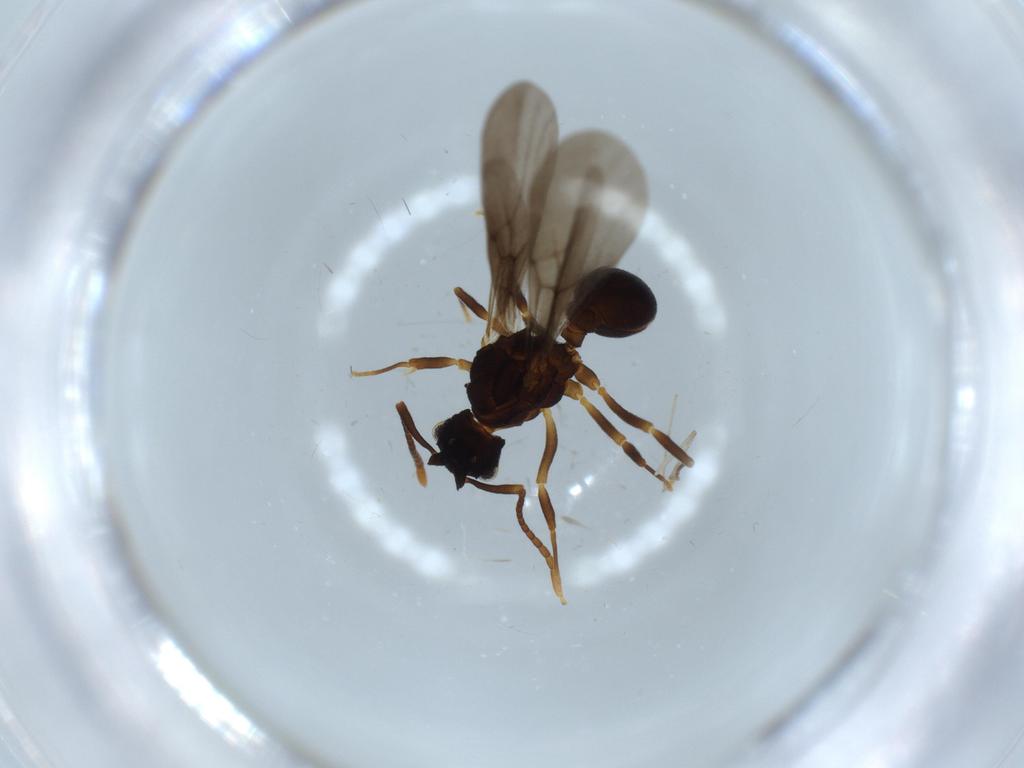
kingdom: Animalia
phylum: Arthropoda
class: Insecta
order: Hymenoptera
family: Formicidae
